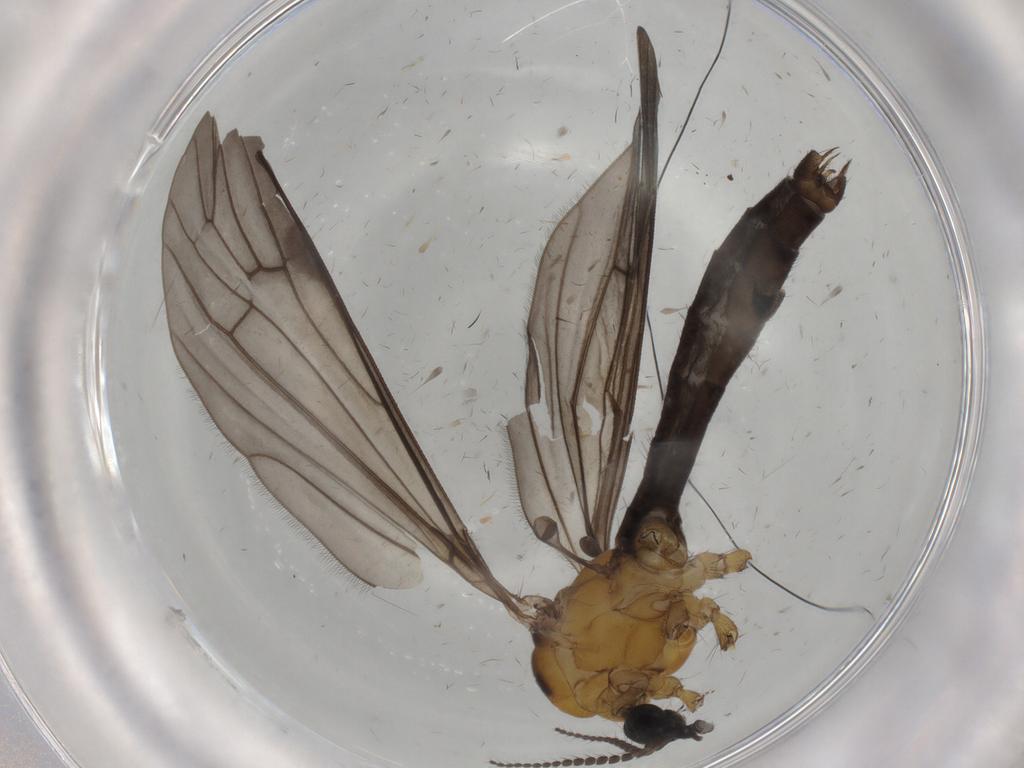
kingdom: Animalia
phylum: Arthropoda
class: Insecta
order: Diptera
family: Limoniidae
